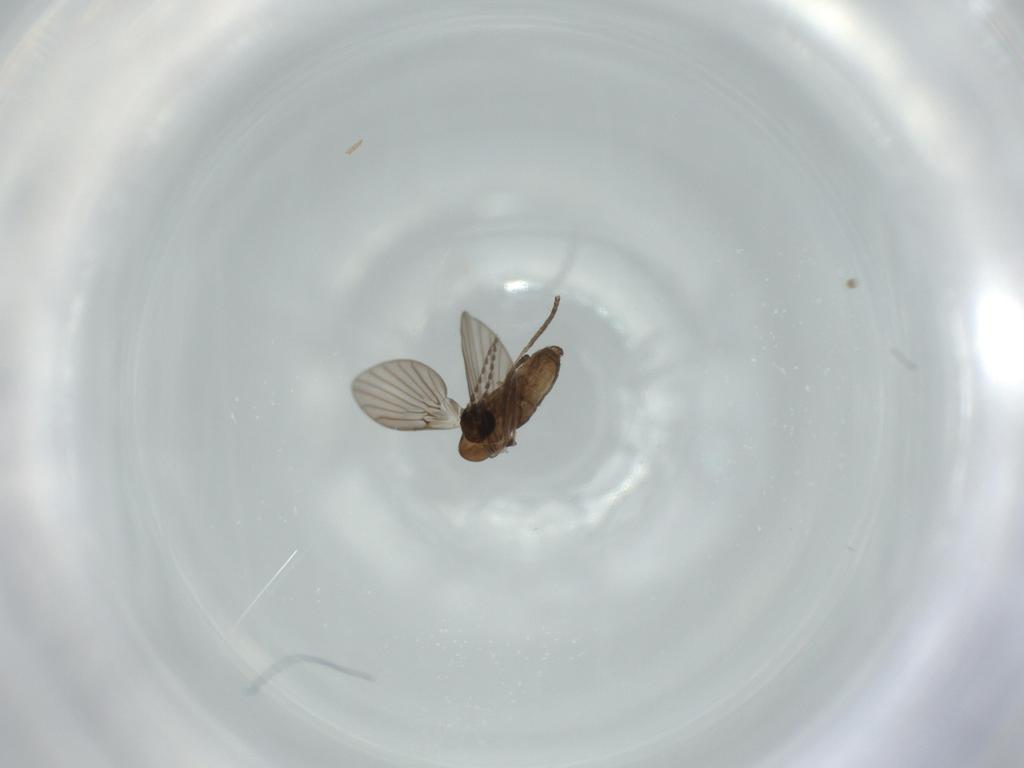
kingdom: Animalia
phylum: Arthropoda
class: Insecta
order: Diptera
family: Psychodidae
